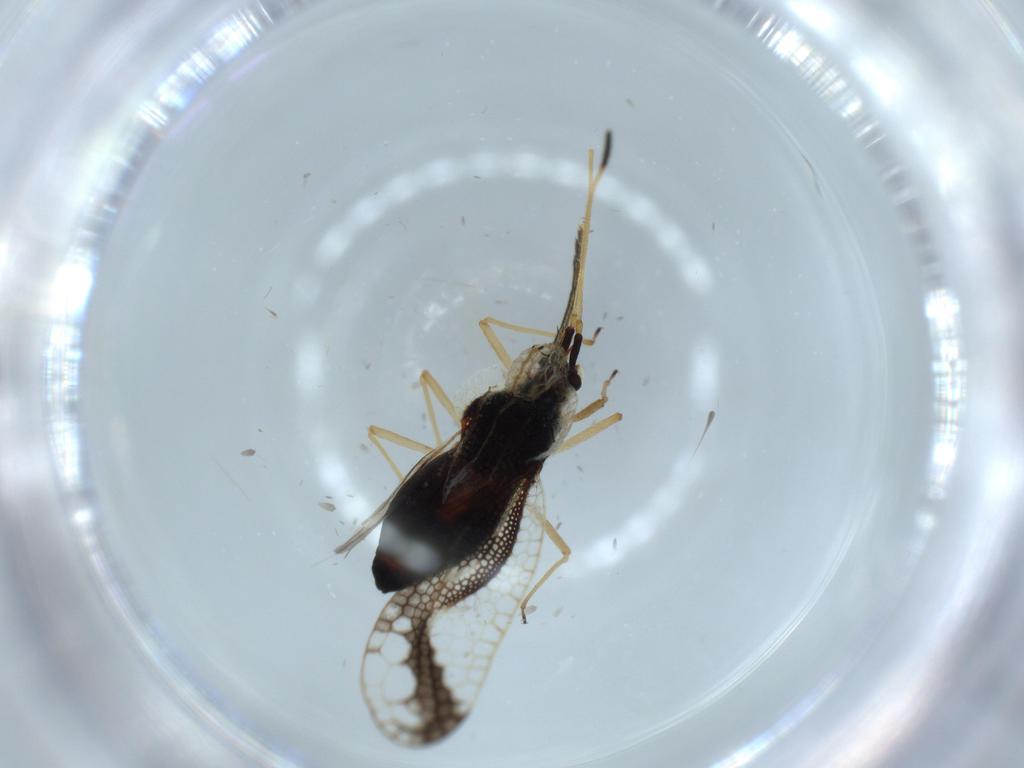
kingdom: Animalia
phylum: Arthropoda
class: Insecta
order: Hemiptera
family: Tingidae
